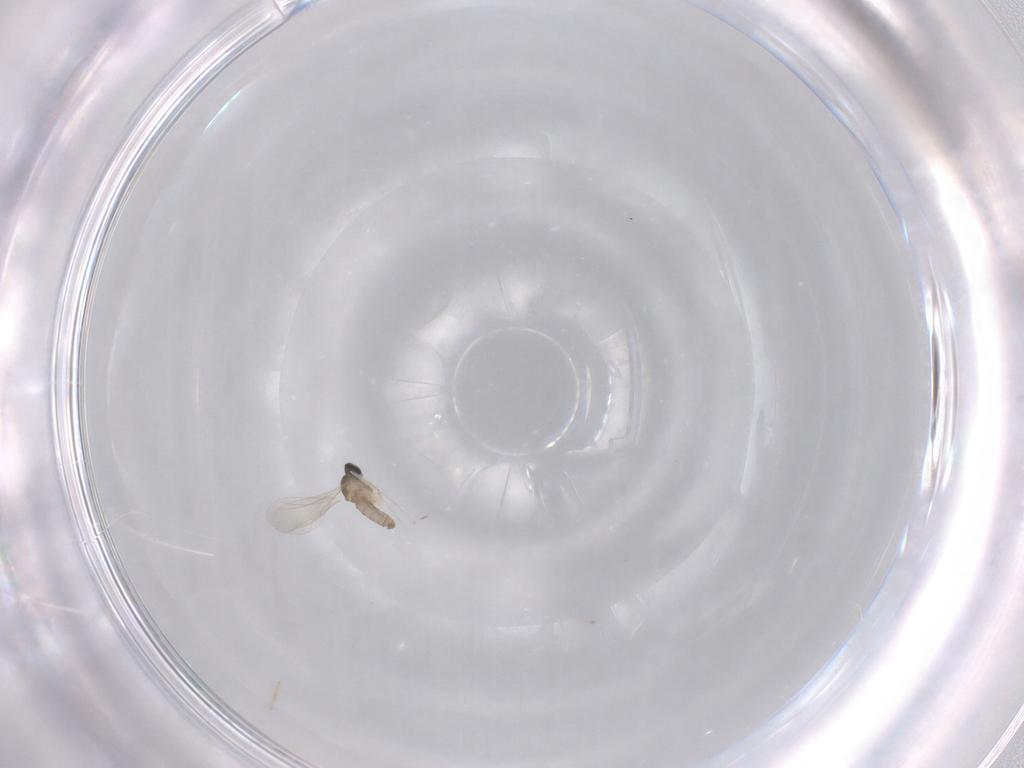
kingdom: Animalia
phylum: Arthropoda
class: Insecta
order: Diptera
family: Cecidomyiidae
